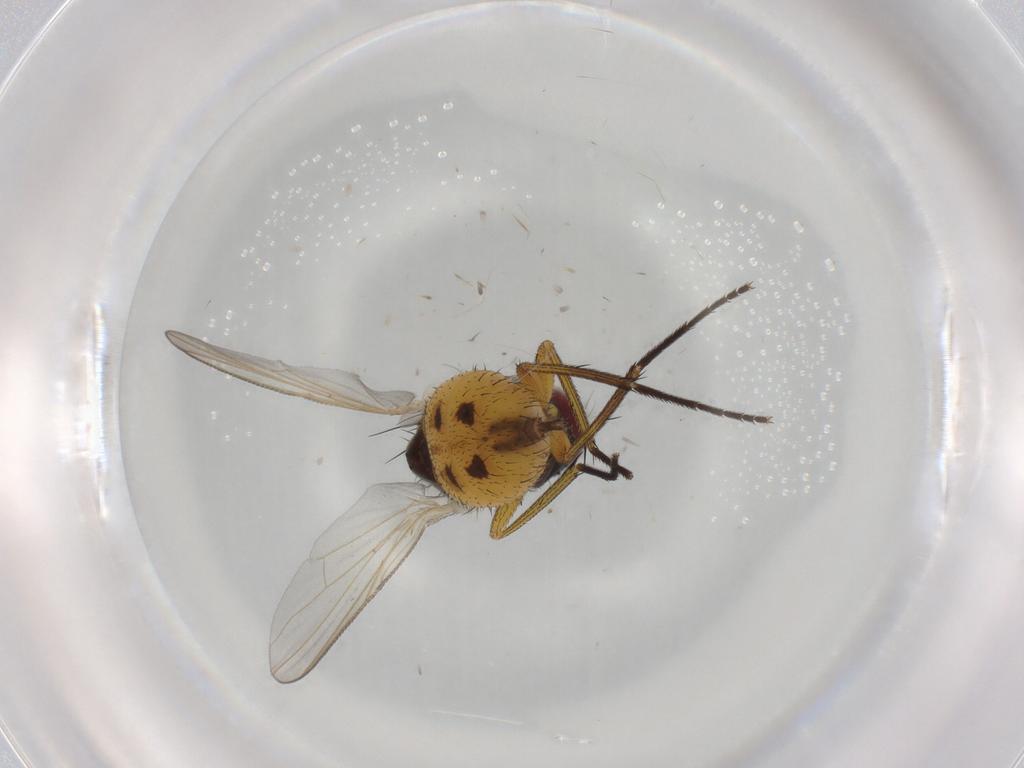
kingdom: Animalia
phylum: Arthropoda
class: Insecta
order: Diptera
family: Muscidae
